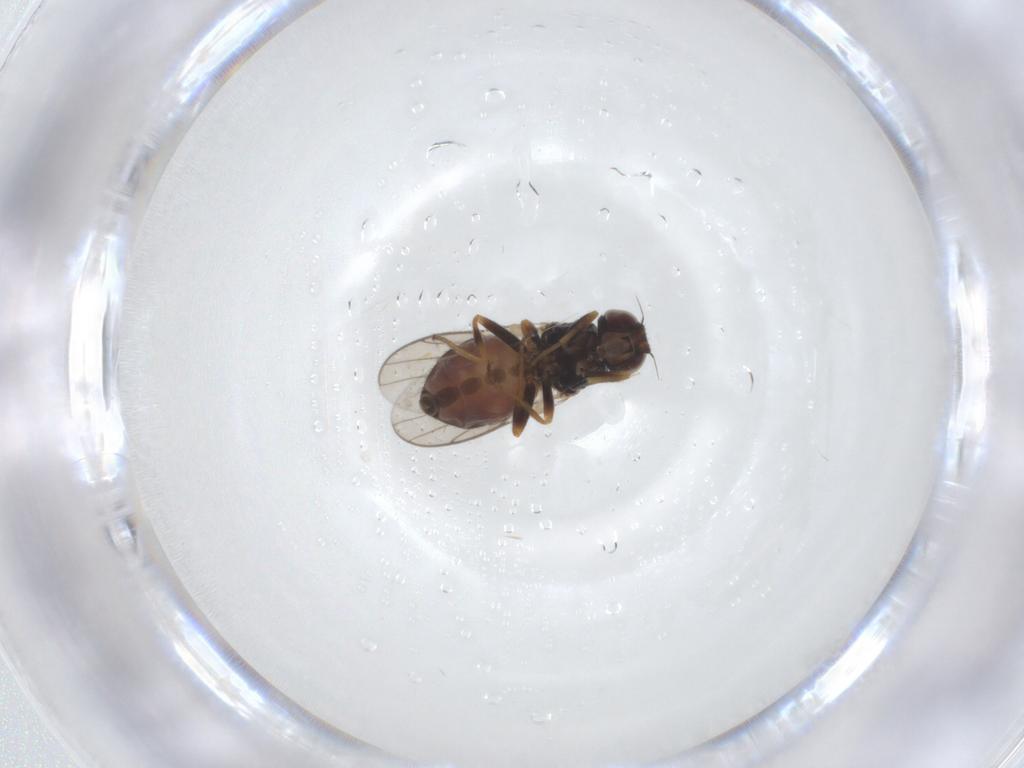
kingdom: Animalia
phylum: Arthropoda
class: Insecta
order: Diptera
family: Chloropidae
